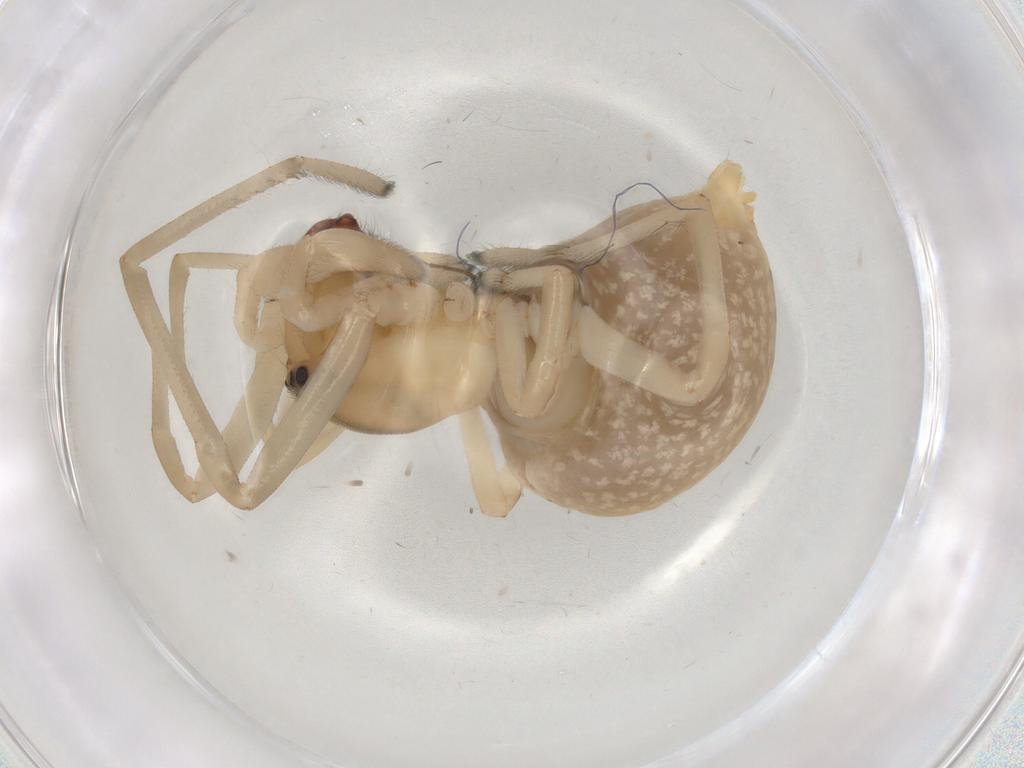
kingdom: Animalia
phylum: Arthropoda
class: Arachnida
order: Araneae
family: Cheiracanthiidae
